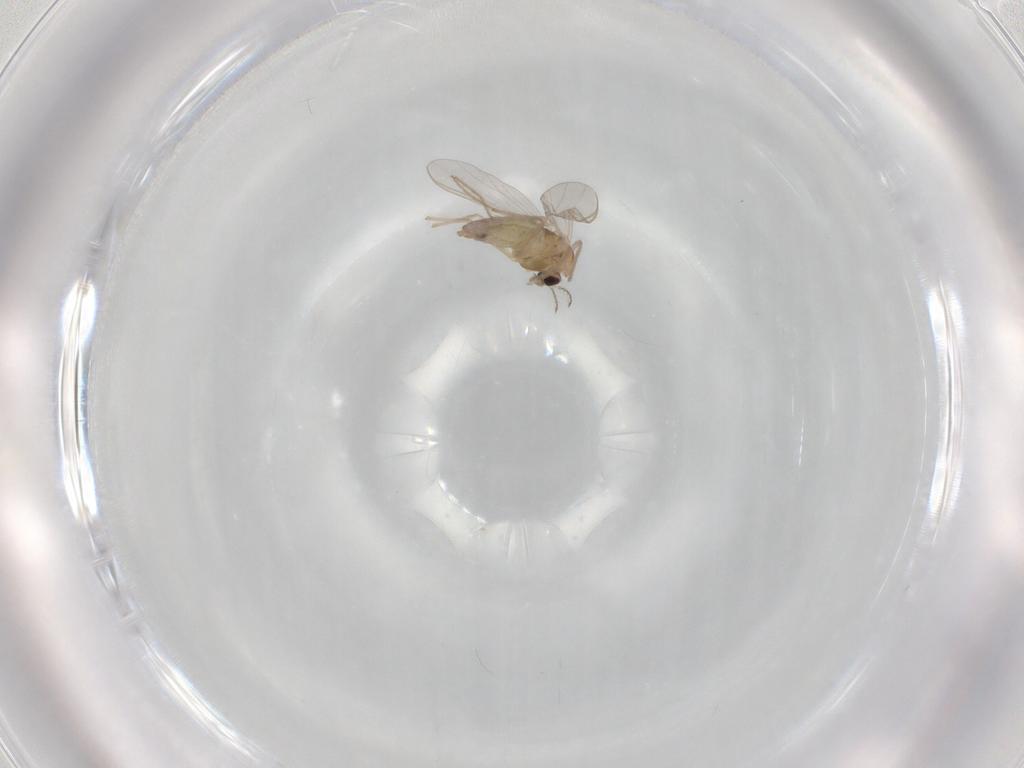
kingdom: Animalia
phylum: Arthropoda
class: Insecta
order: Diptera
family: Chironomidae
